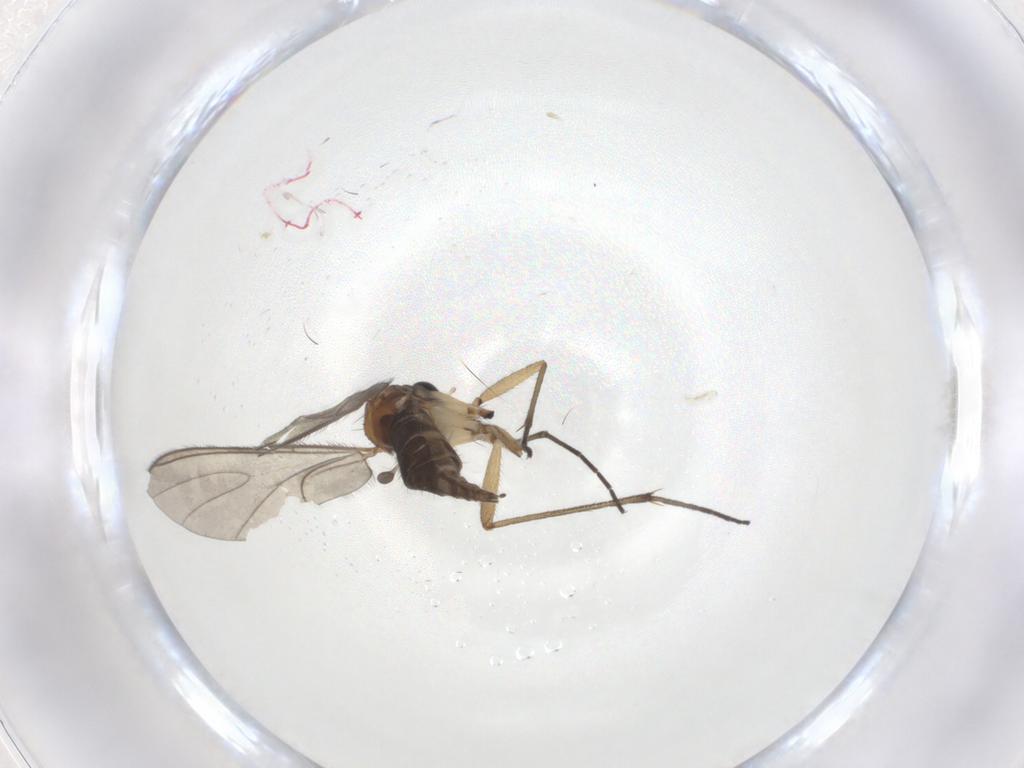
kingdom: Animalia
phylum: Arthropoda
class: Insecta
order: Diptera
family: Sciaridae
